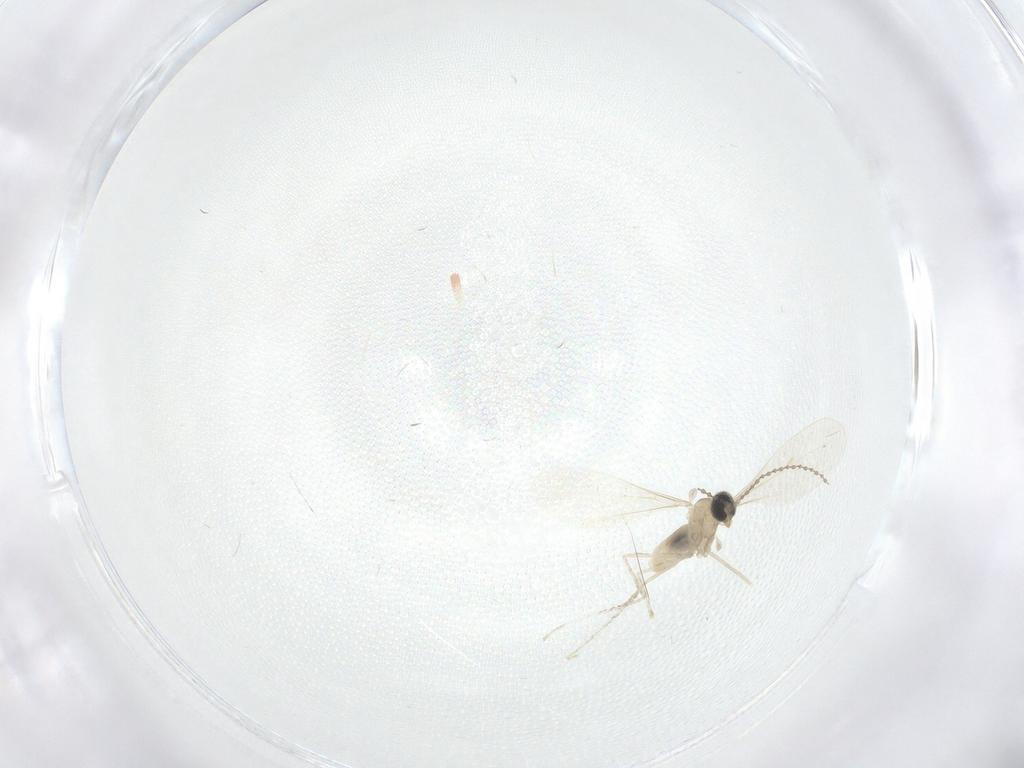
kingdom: Animalia
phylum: Arthropoda
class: Insecta
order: Diptera
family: Cecidomyiidae
